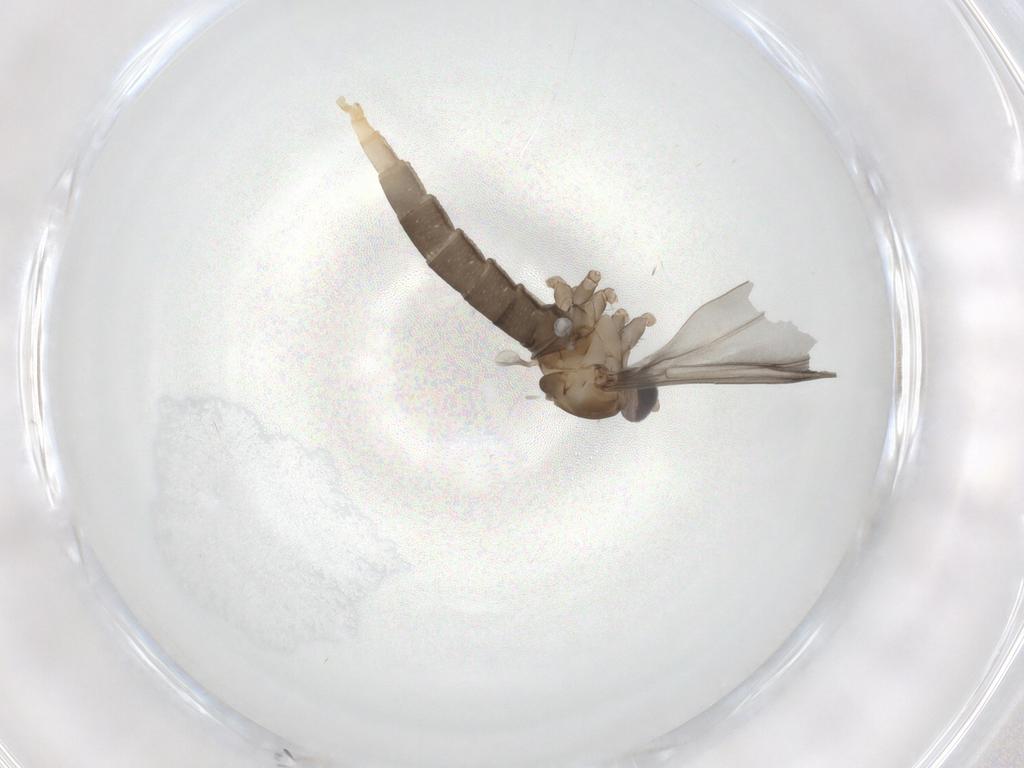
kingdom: Animalia
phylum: Arthropoda
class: Insecta
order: Diptera
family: Cecidomyiidae
